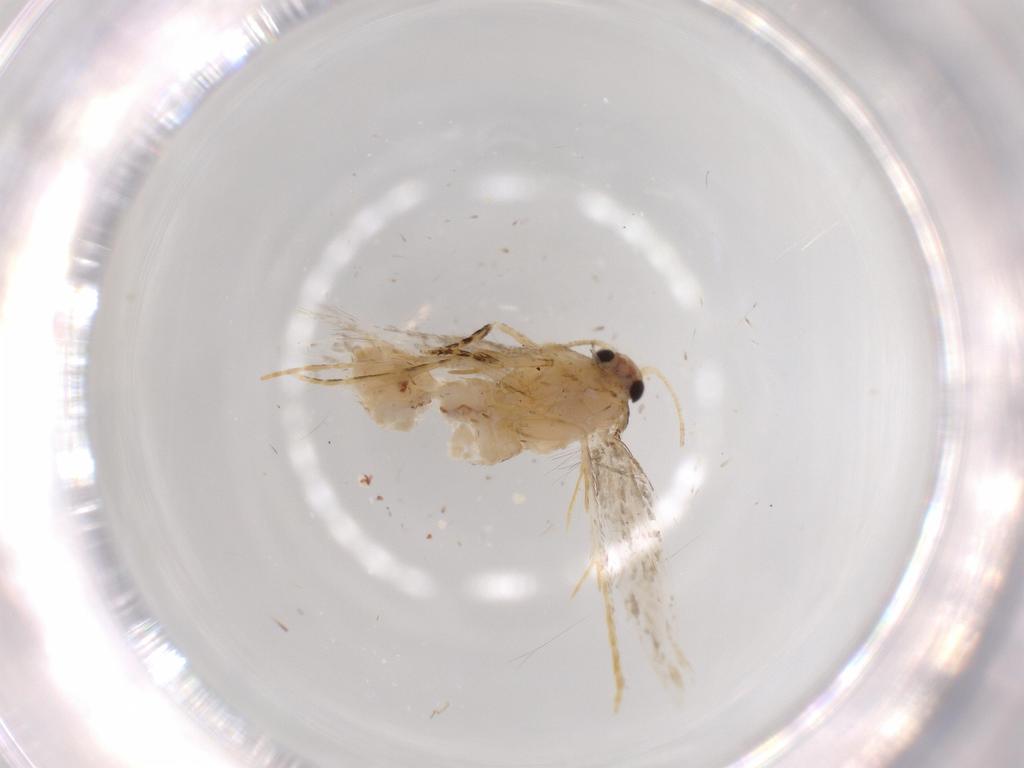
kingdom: Animalia
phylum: Arthropoda
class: Insecta
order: Lepidoptera
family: Tineidae
